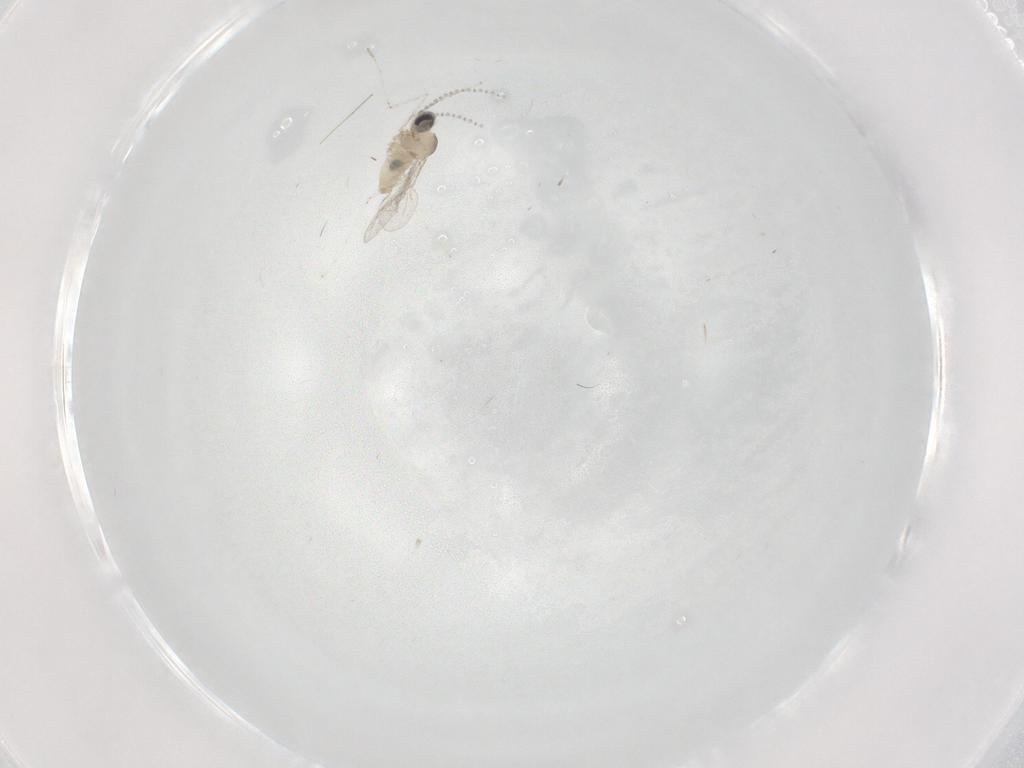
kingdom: Animalia
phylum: Arthropoda
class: Insecta
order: Diptera
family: Cecidomyiidae
